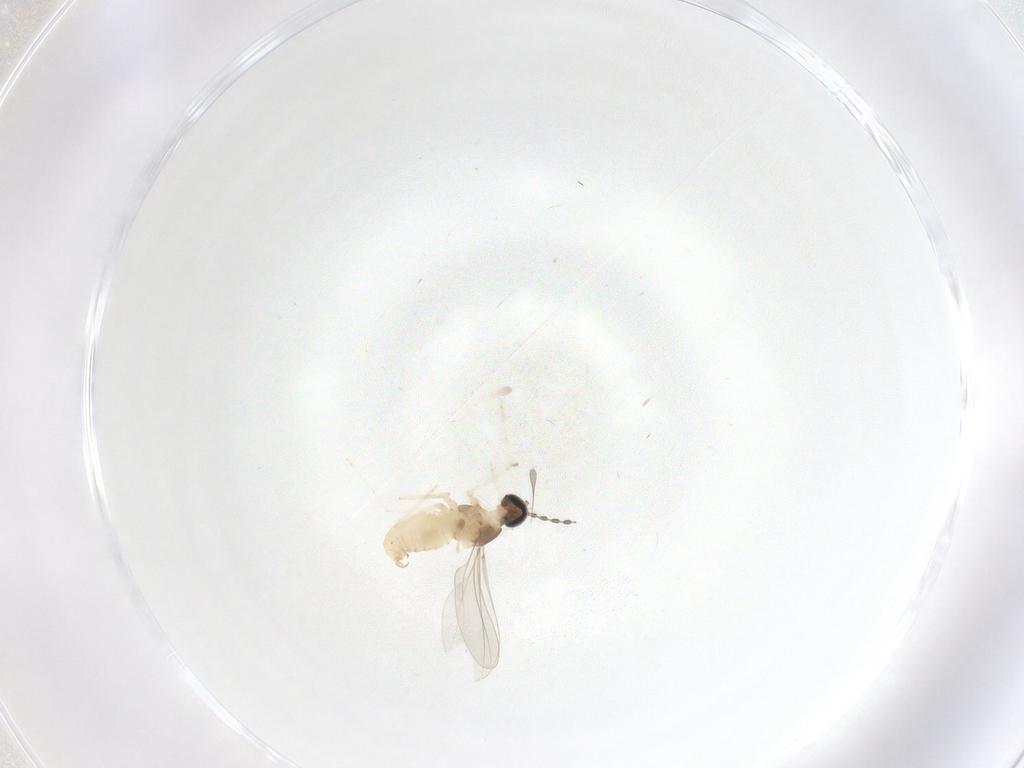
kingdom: Animalia
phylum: Arthropoda
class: Insecta
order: Diptera
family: Cecidomyiidae
